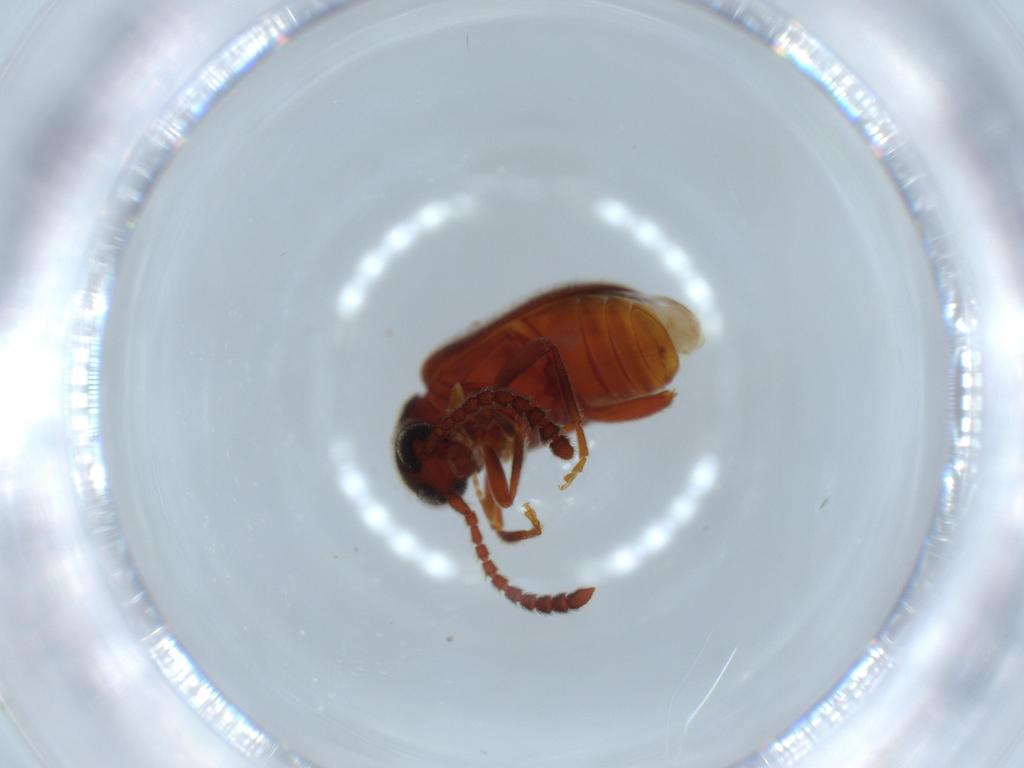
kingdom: Animalia
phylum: Arthropoda
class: Insecta
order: Coleoptera
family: Aderidae
